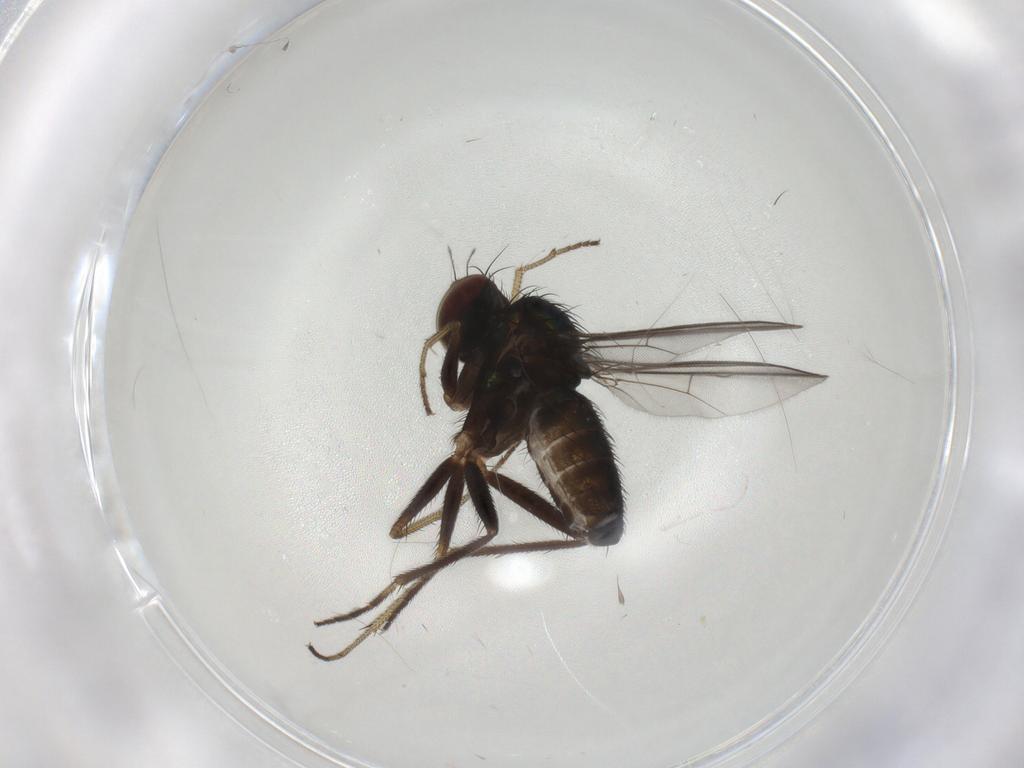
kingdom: Animalia
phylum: Arthropoda
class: Insecta
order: Diptera
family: Dolichopodidae
